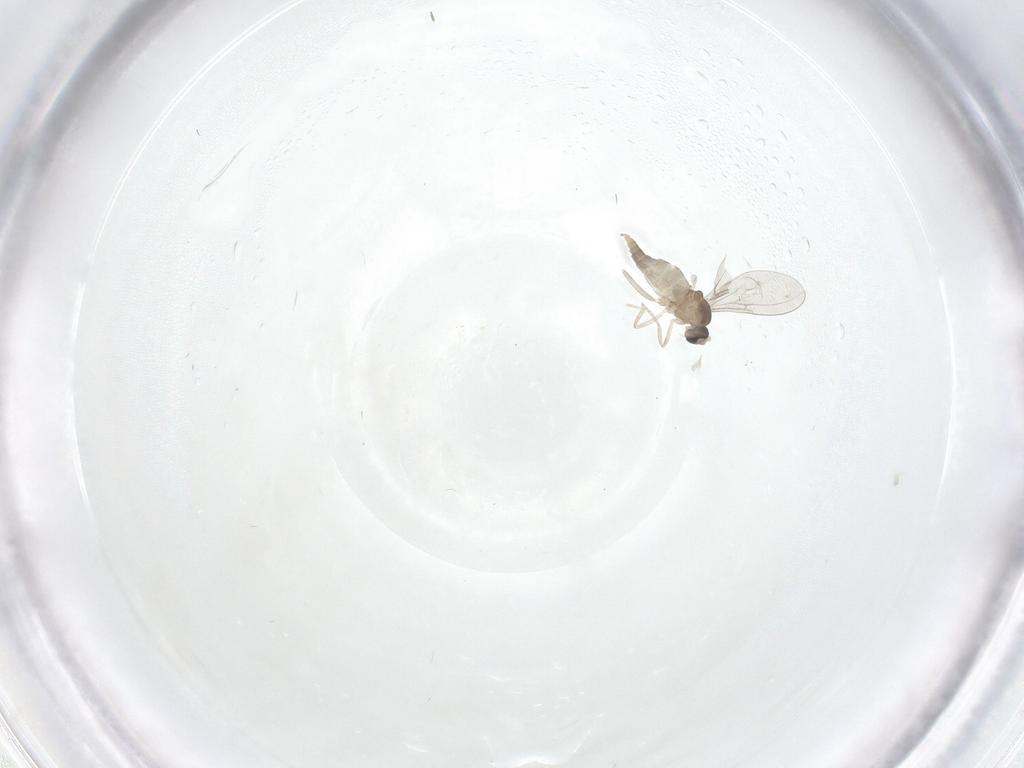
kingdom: Animalia
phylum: Arthropoda
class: Insecta
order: Diptera
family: Cecidomyiidae
